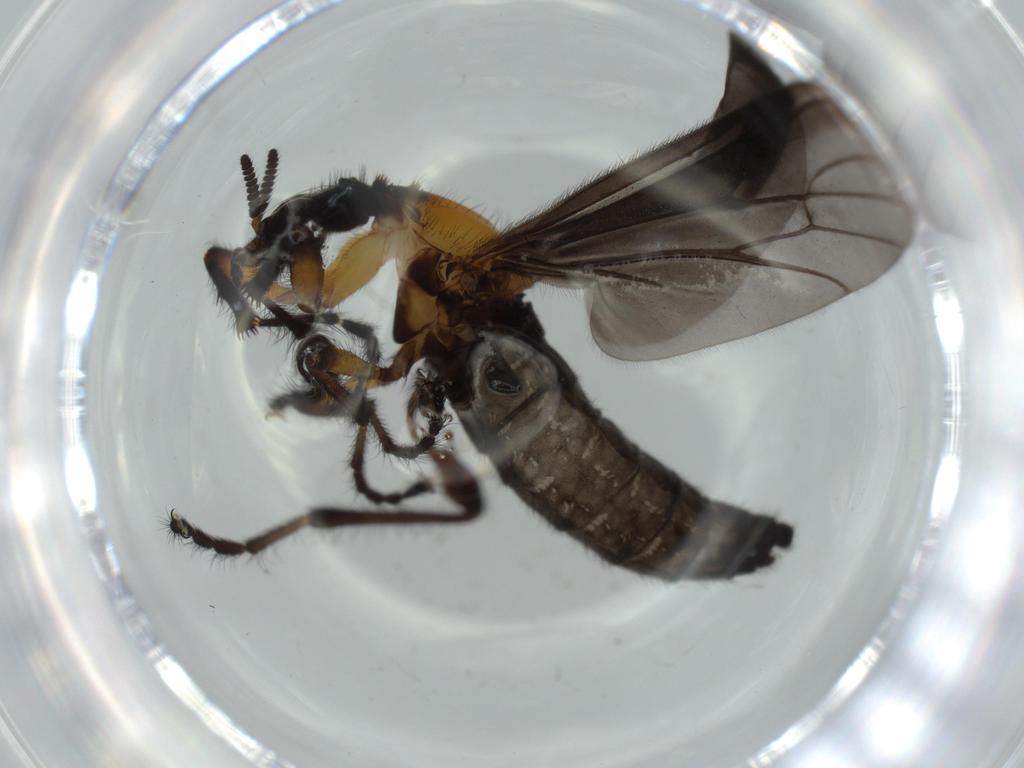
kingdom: Animalia
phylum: Arthropoda
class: Insecta
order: Diptera
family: Bibionidae
